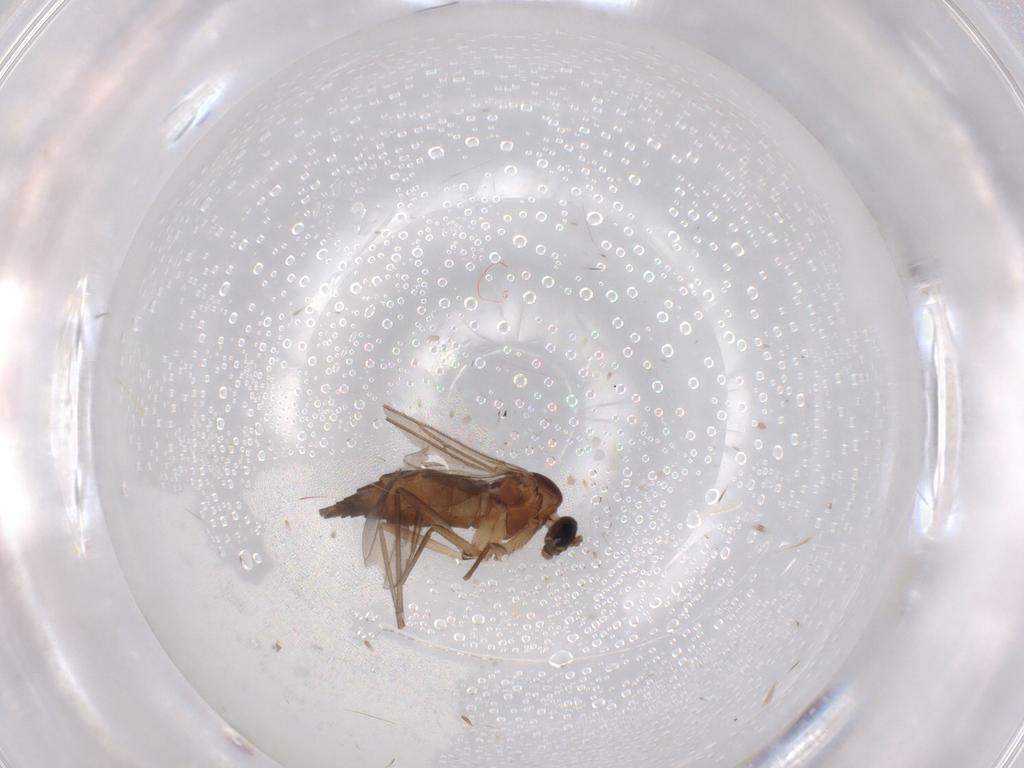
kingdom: Animalia
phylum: Arthropoda
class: Insecta
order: Diptera
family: Sciaridae
